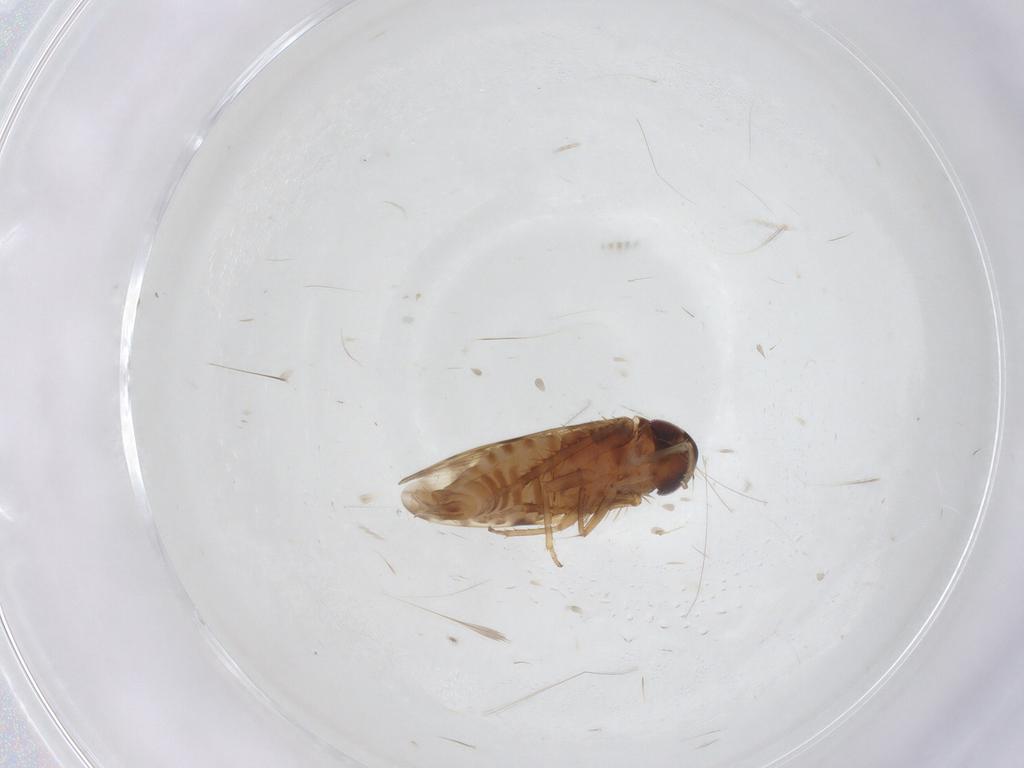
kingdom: Animalia
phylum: Arthropoda
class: Insecta
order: Hemiptera
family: Cicadellidae
